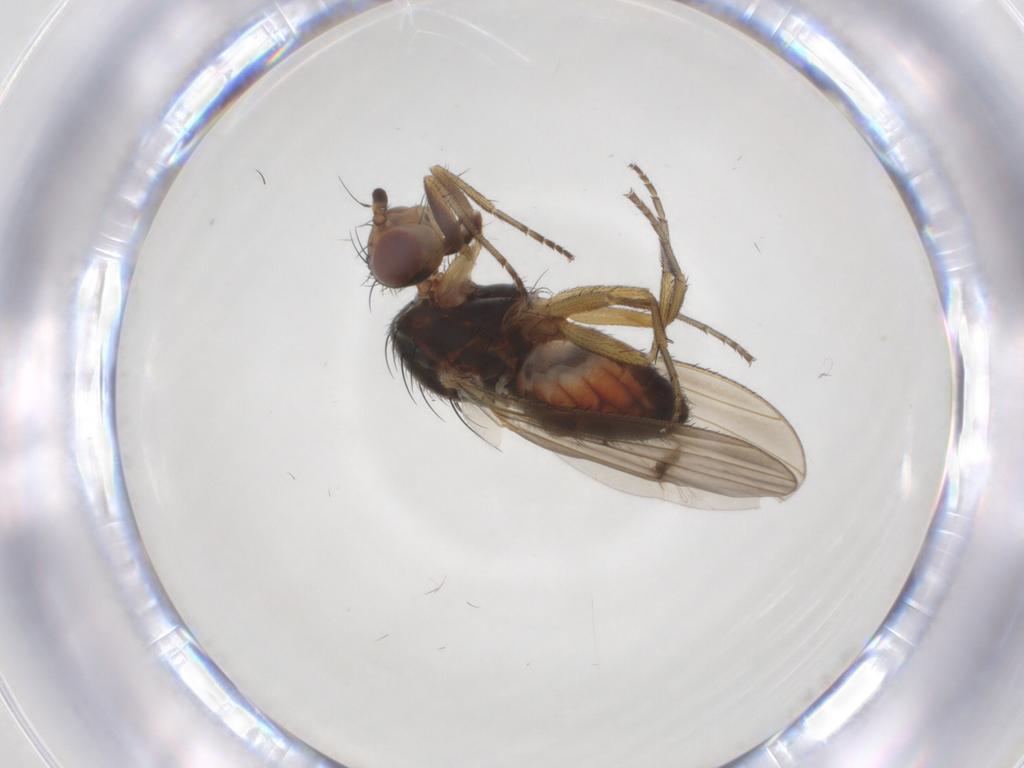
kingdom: Animalia
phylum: Arthropoda
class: Insecta
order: Diptera
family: Heleomyzidae
